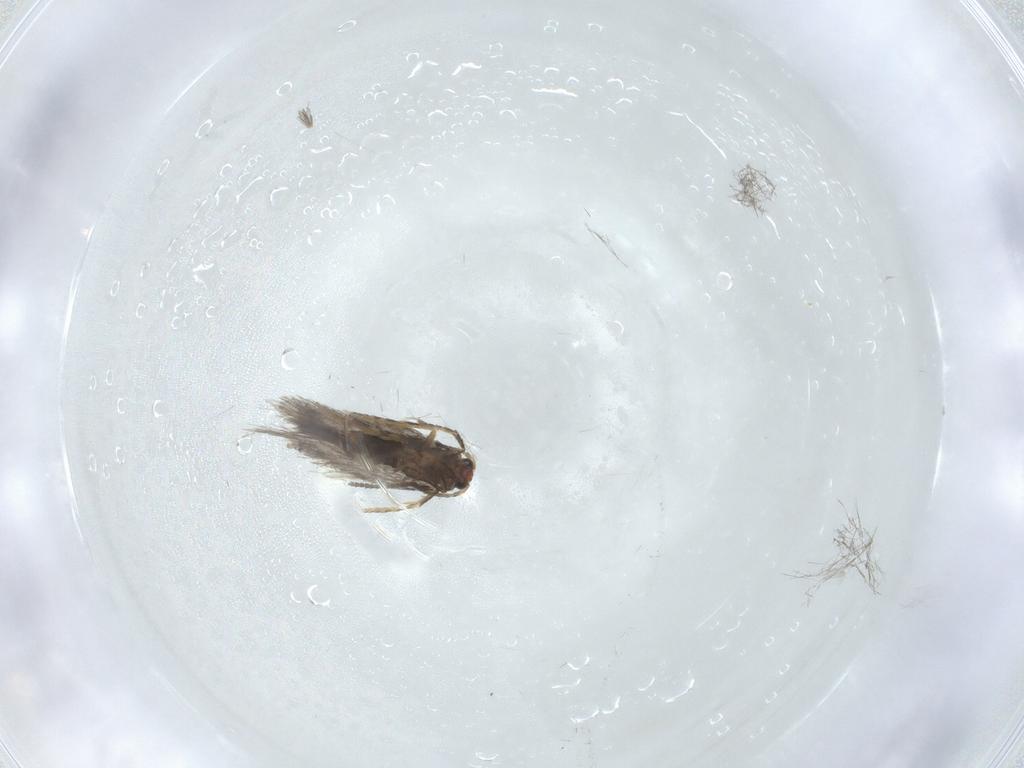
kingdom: Animalia
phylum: Arthropoda
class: Insecta
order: Lepidoptera
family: Nepticulidae
